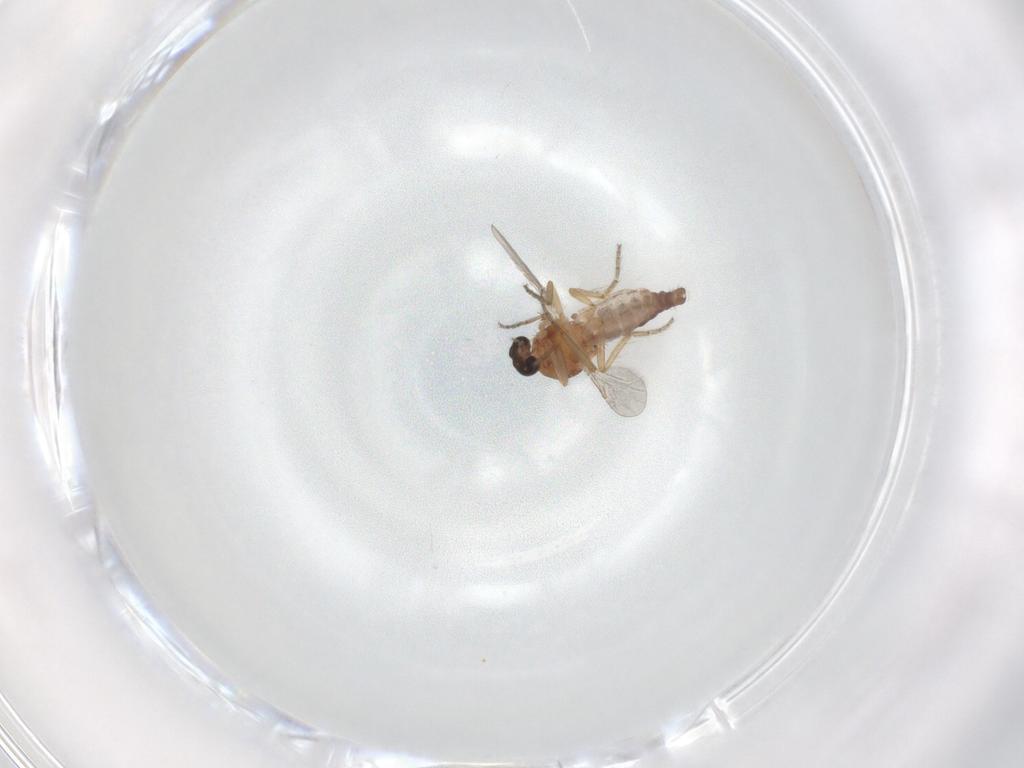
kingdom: Animalia
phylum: Arthropoda
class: Insecta
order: Diptera
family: Ceratopogonidae
